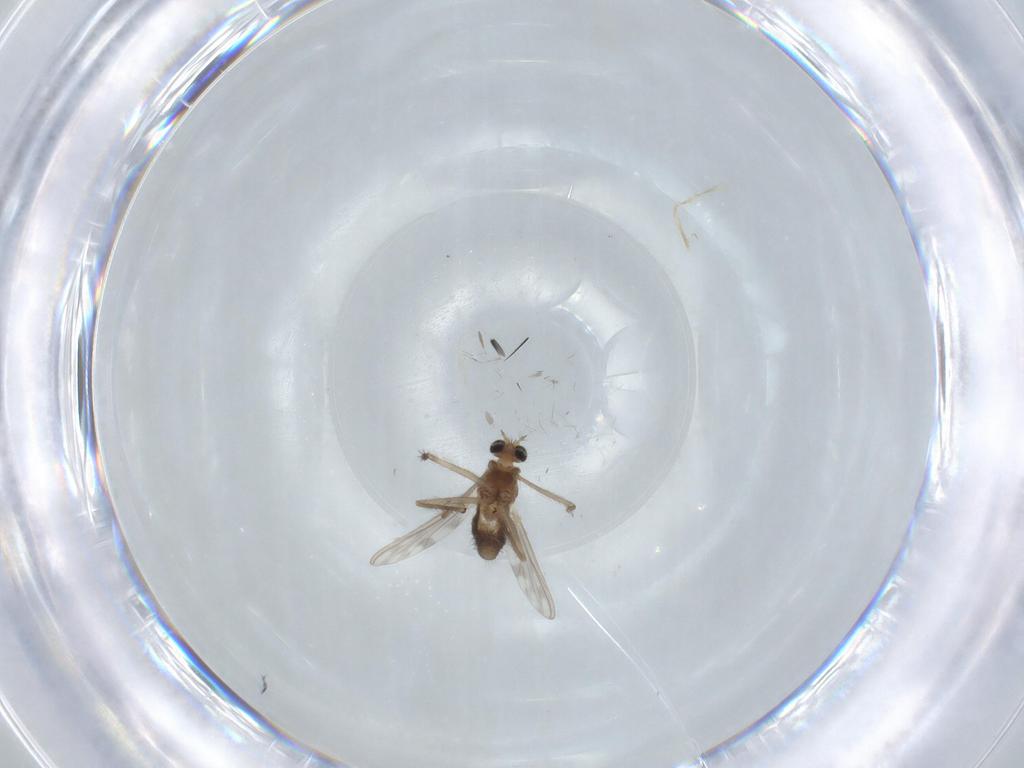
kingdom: Animalia
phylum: Arthropoda
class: Insecta
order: Diptera
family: Chironomidae
